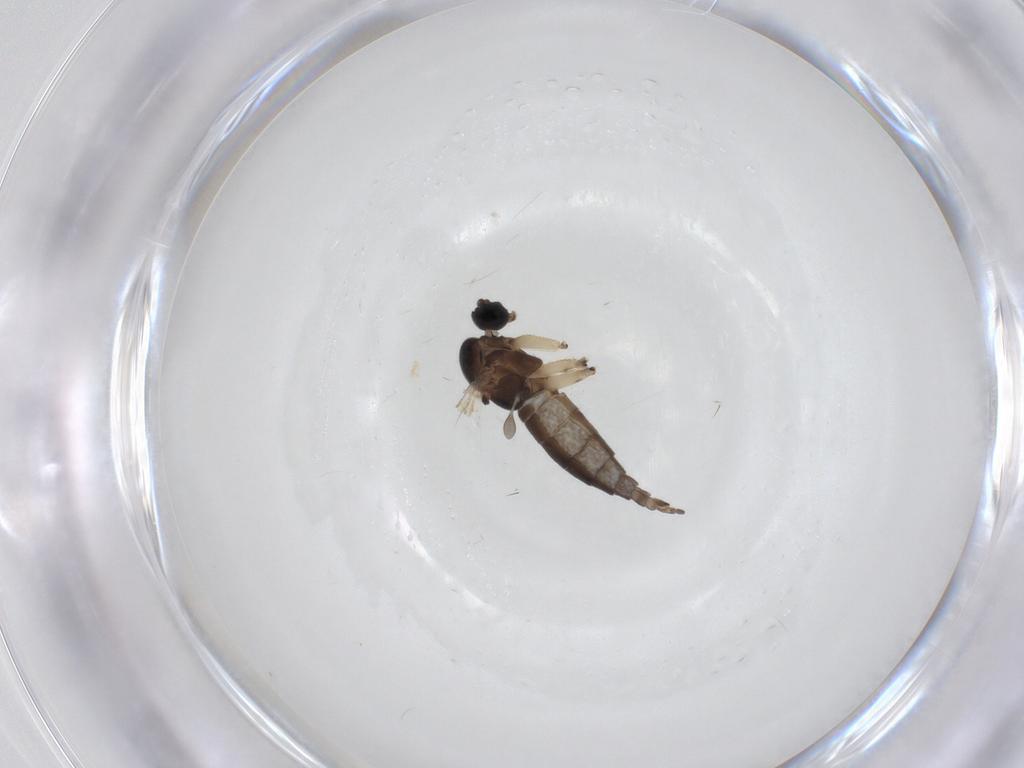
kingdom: Animalia
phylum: Arthropoda
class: Insecta
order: Diptera
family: Sciaridae
